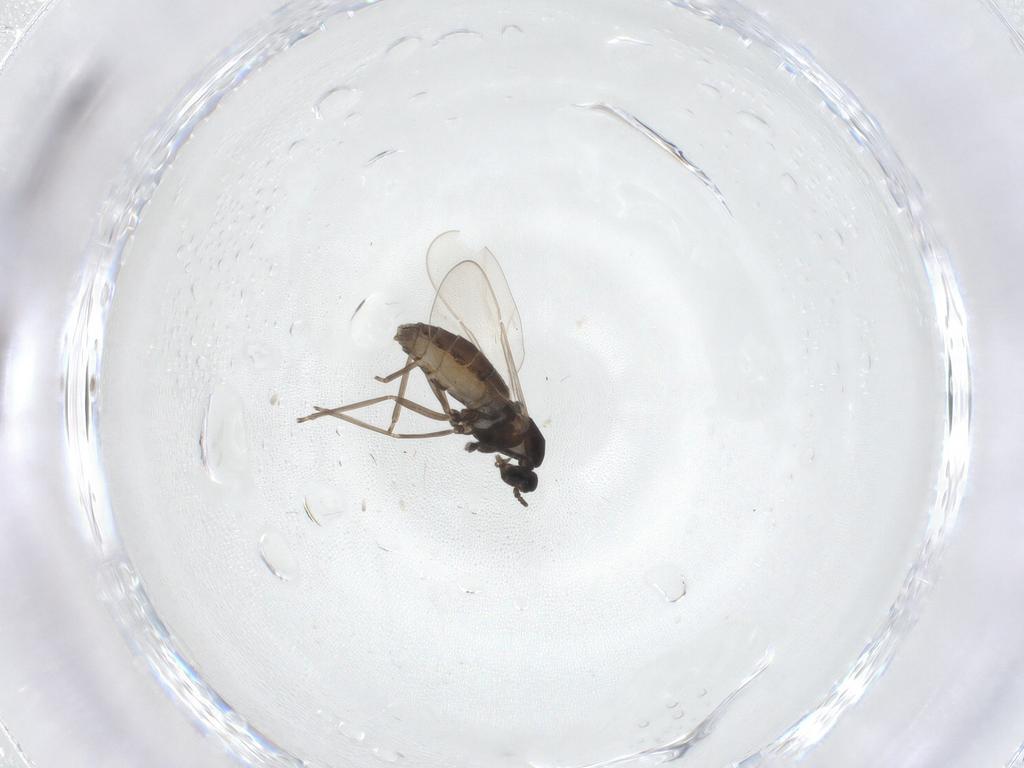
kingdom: Animalia
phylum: Arthropoda
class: Insecta
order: Diptera
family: Cecidomyiidae
